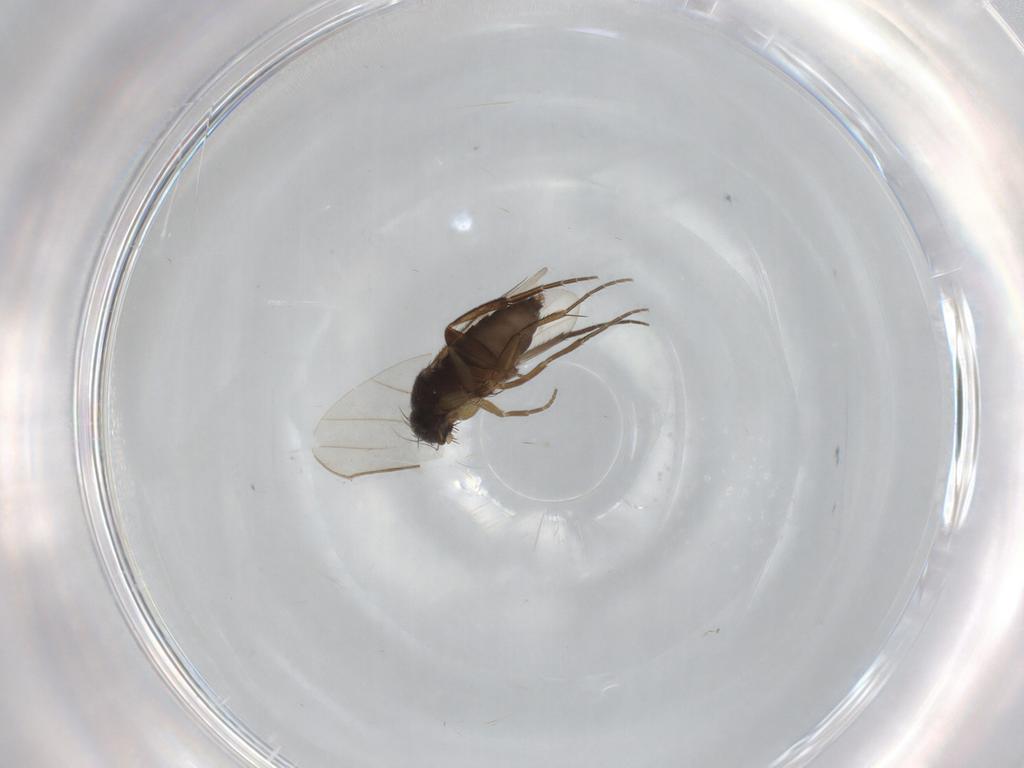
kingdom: Animalia
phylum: Arthropoda
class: Insecta
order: Diptera
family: Phoridae
